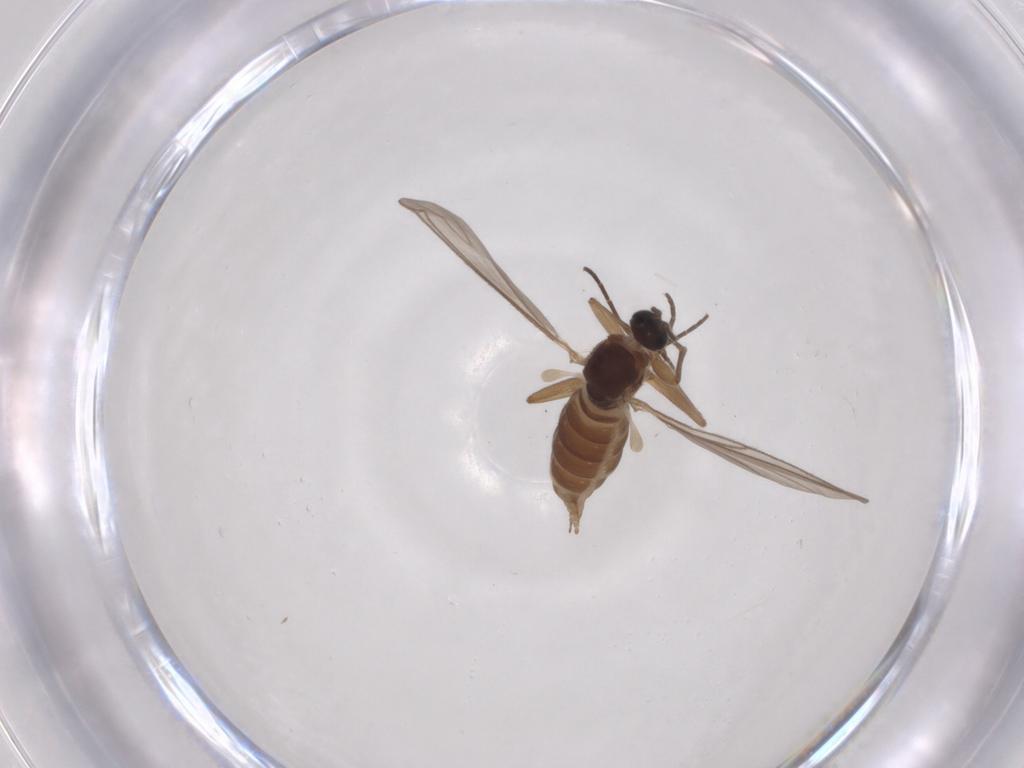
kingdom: Animalia
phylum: Arthropoda
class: Insecta
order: Diptera
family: Sciaridae
